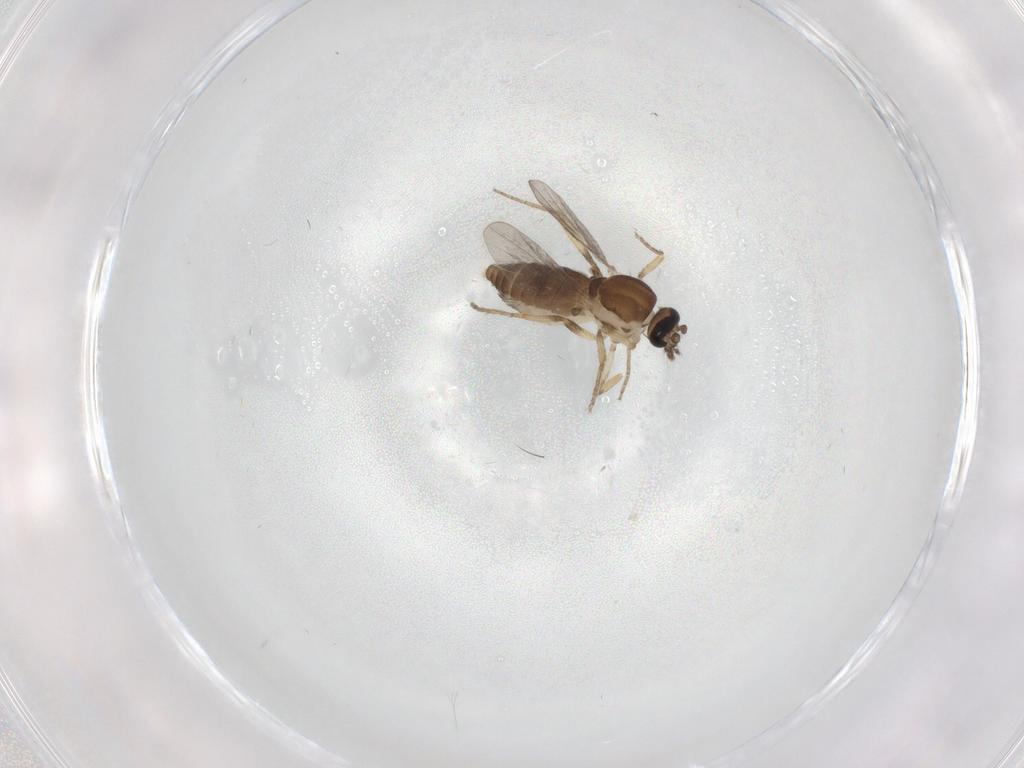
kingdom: Animalia
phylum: Arthropoda
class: Insecta
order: Diptera
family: Ceratopogonidae
